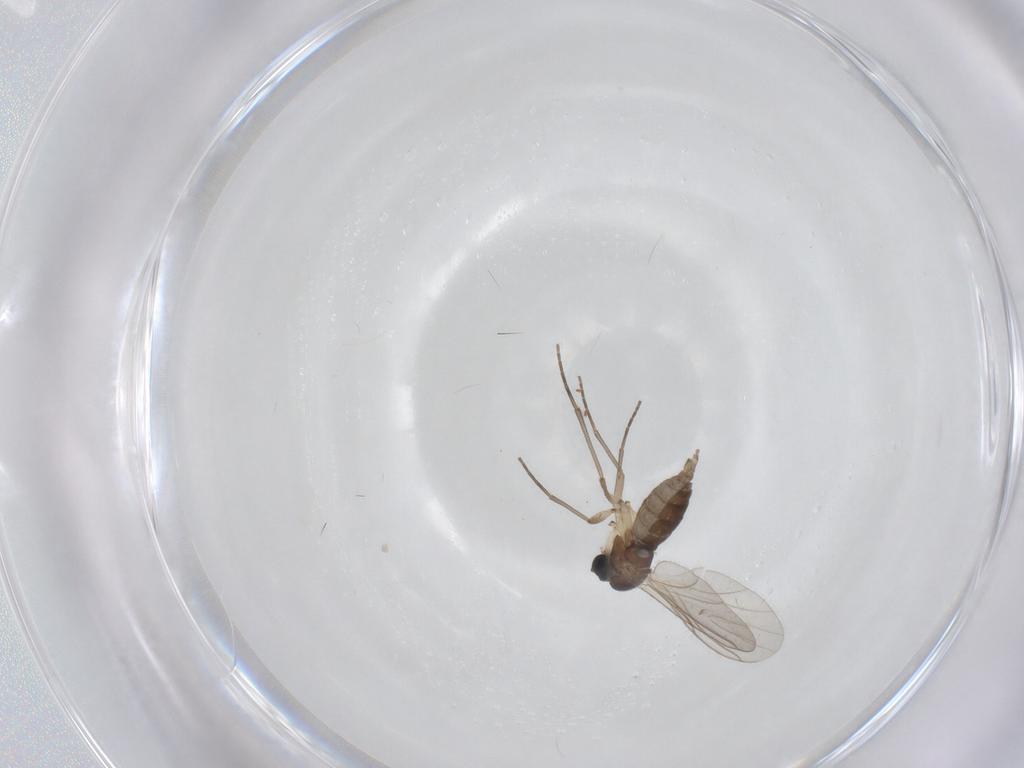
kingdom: Animalia
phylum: Arthropoda
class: Insecta
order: Diptera
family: Sciaridae
